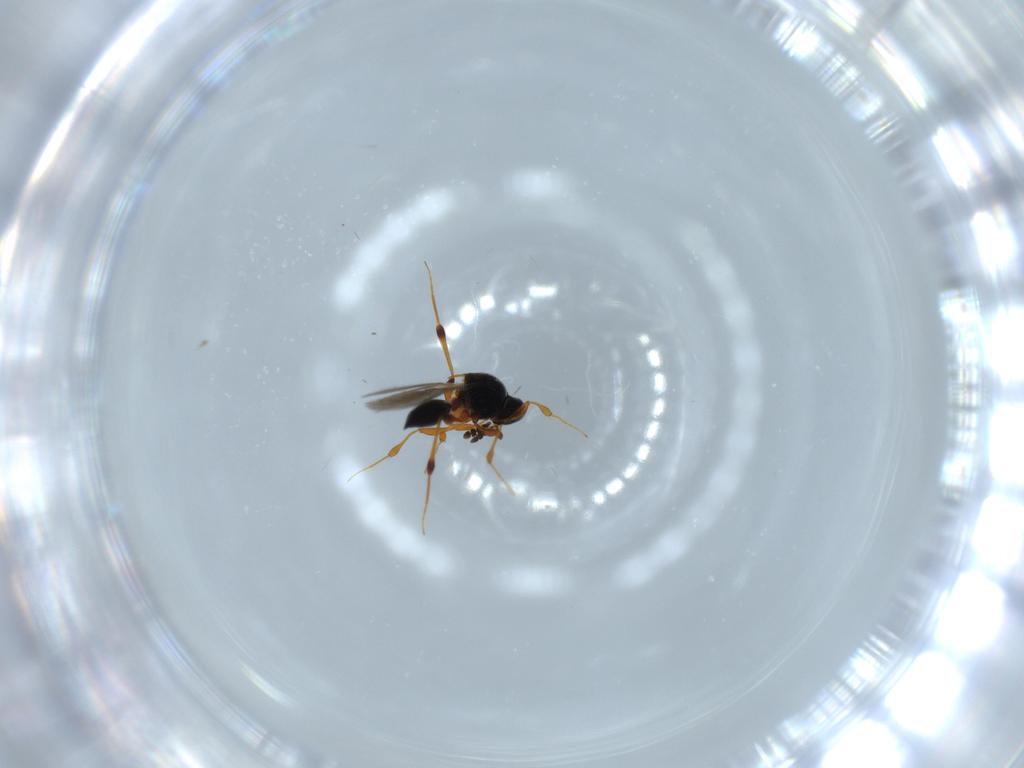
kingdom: Animalia
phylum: Arthropoda
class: Insecta
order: Hymenoptera
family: Platygastridae
